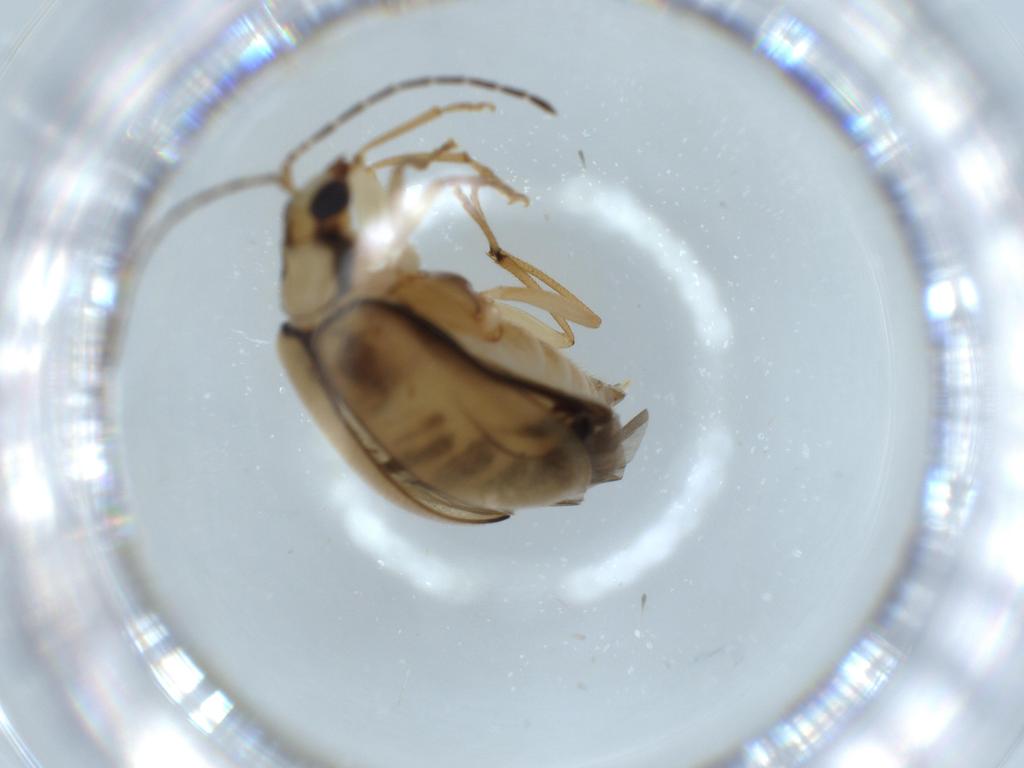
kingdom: Animalia
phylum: Arthropoda
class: Insecta
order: Coleoptera
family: Chrysomelidae
